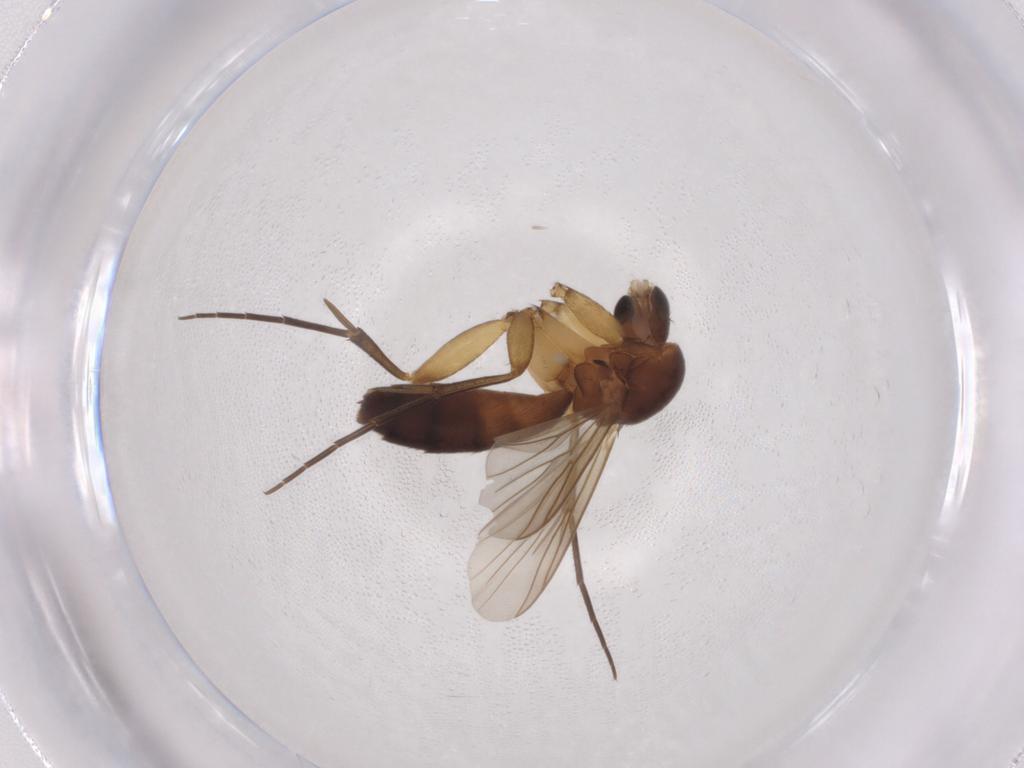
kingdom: Animalia
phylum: Arthropoda
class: Insecta
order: Diptera
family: Mycetophilidae
